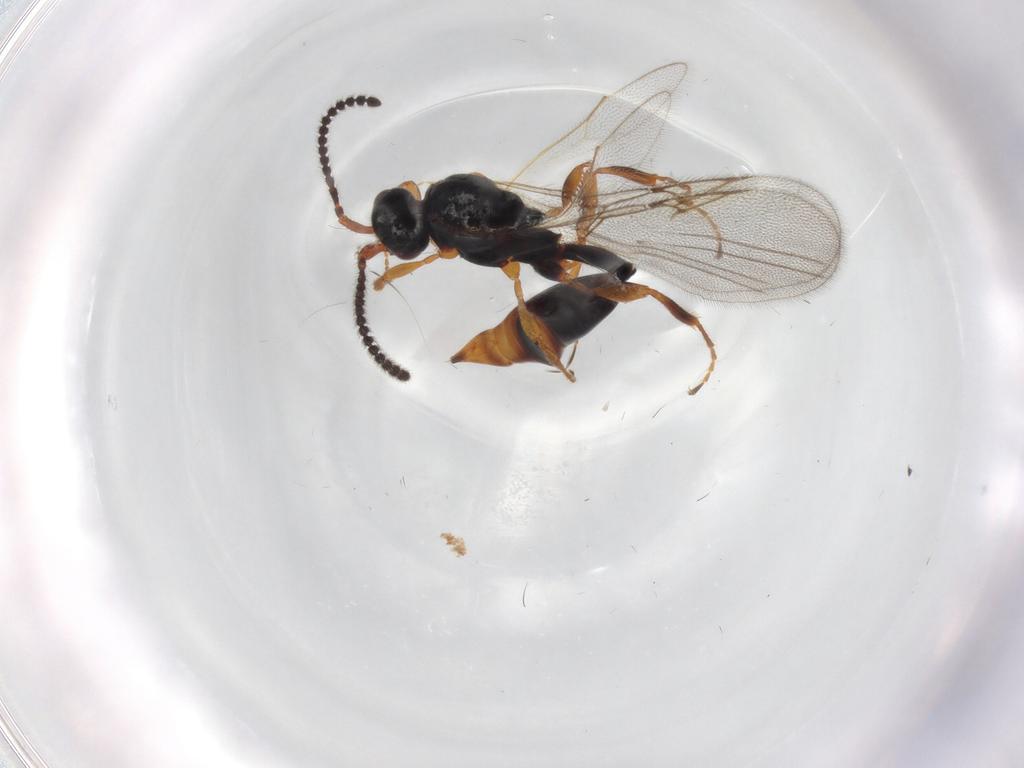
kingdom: Animalia
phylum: Arthropoda
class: Insecta
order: Hymenoptera
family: Diapriidae
